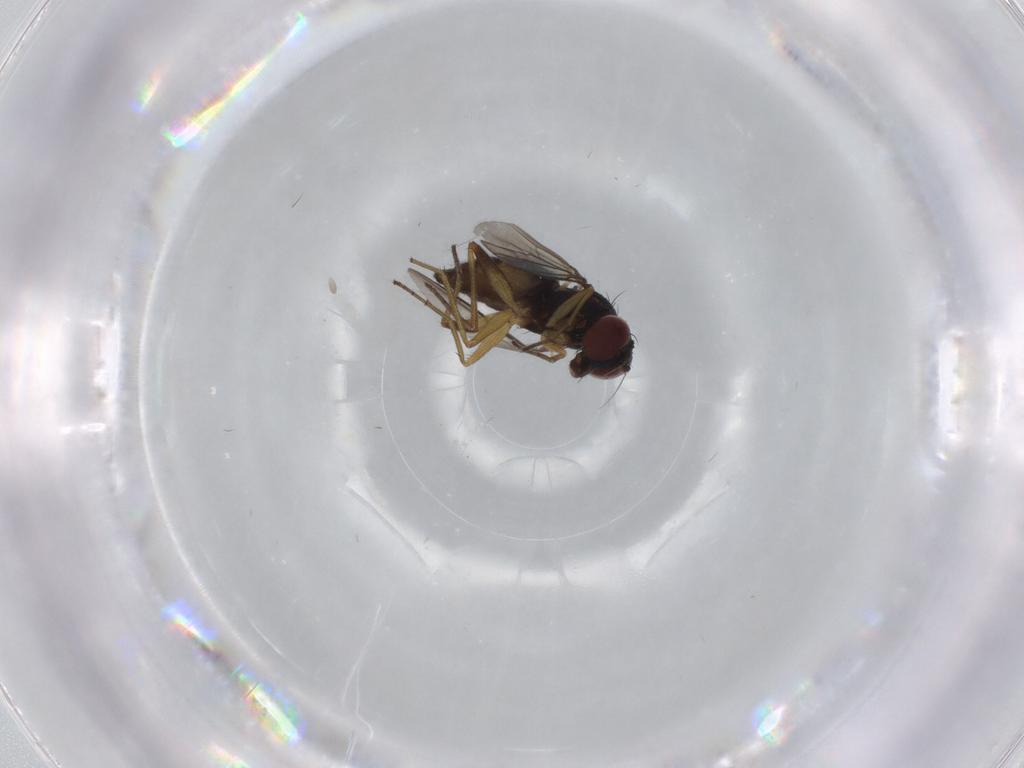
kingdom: Animalia
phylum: Arthropoda
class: Insecta
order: Diptera
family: Dolichopodidae
